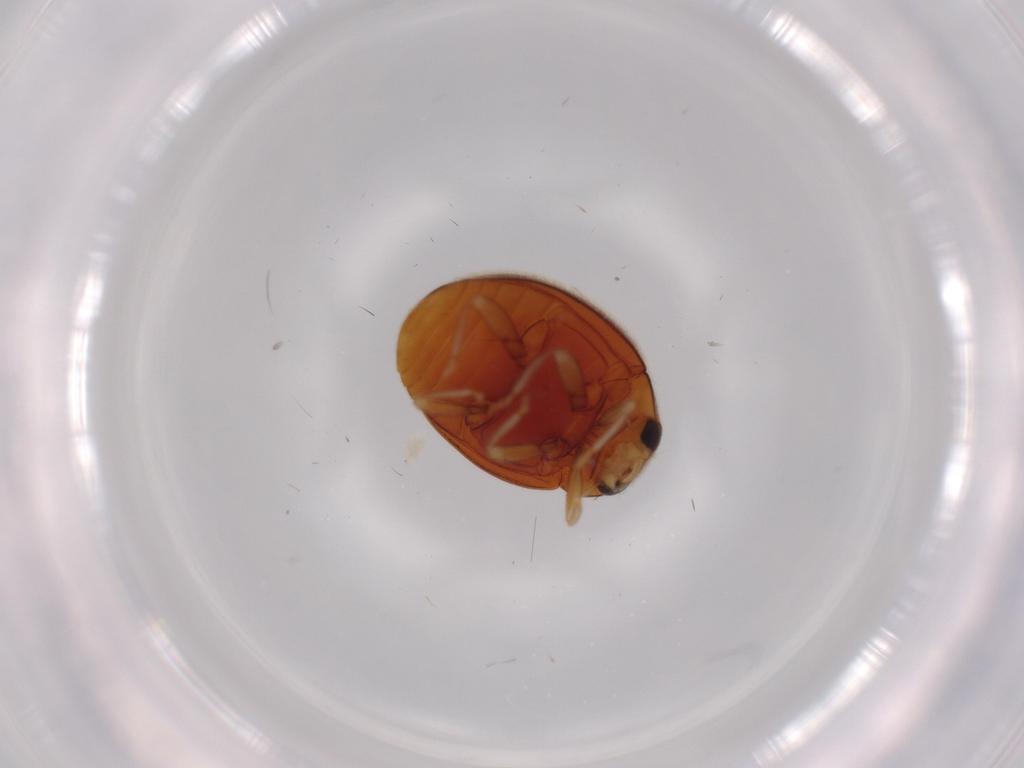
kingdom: Animalia
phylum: Arthropoda
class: Insecta
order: Coleoptera
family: Coccinellidae
